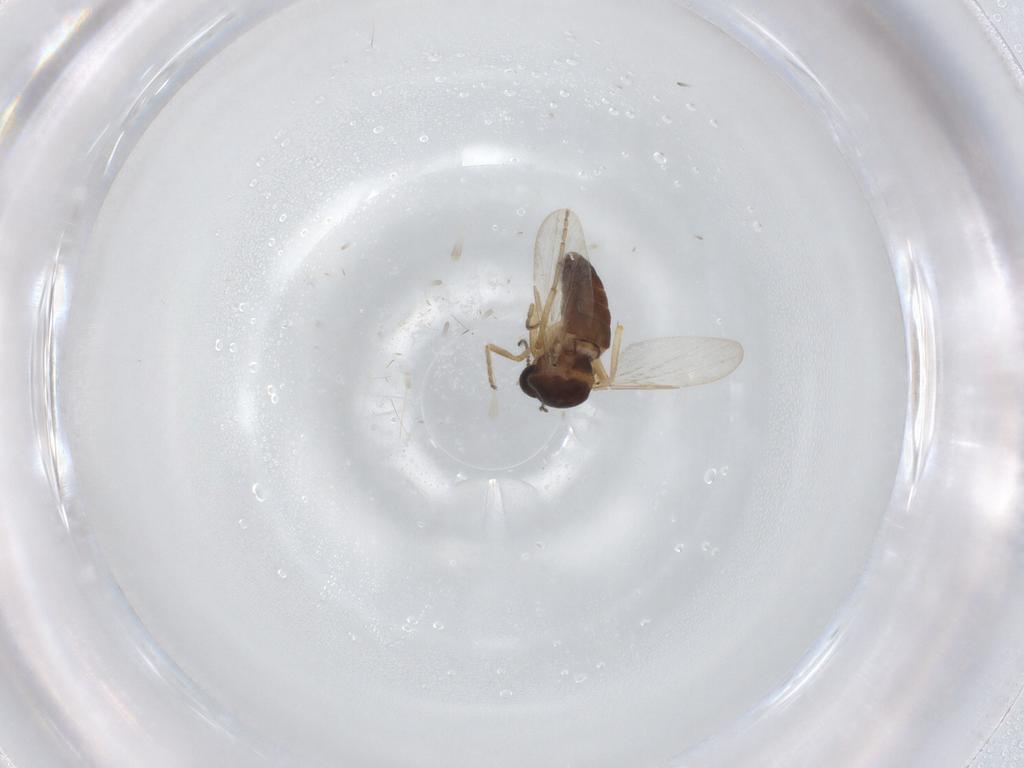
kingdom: Animalia
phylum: Arthropoda
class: Insecta
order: Diptera
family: Ceratopogonidae
